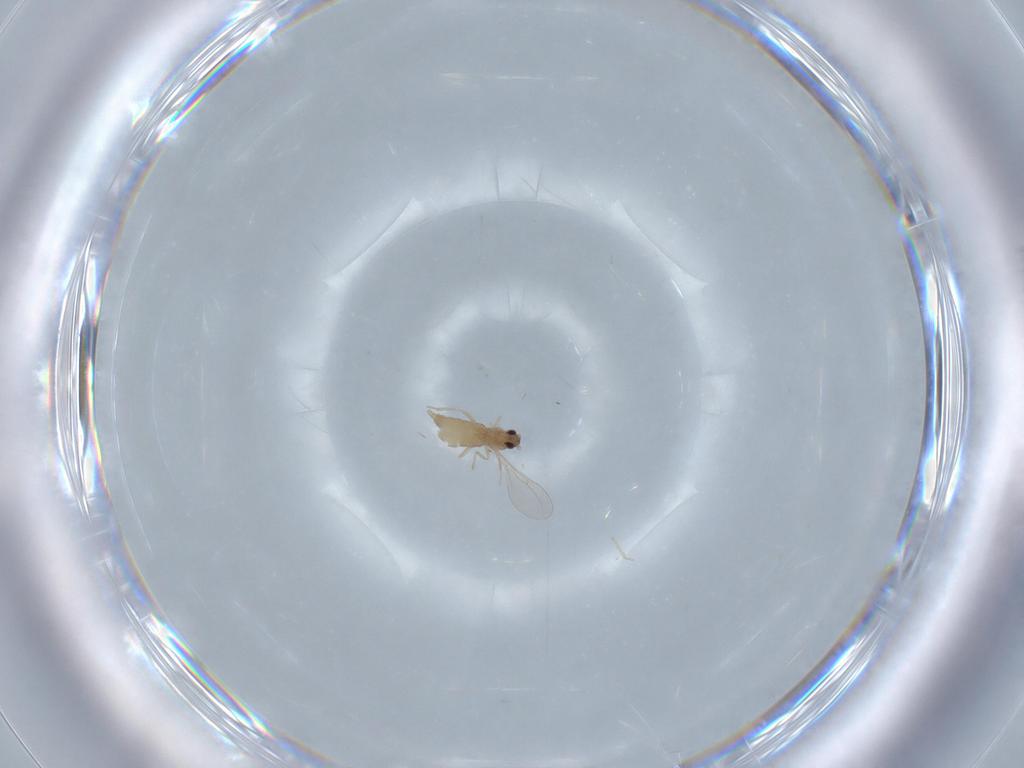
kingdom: Animalia
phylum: Arthropoda
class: Insecta
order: Diptera
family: Cecidomyiidae
